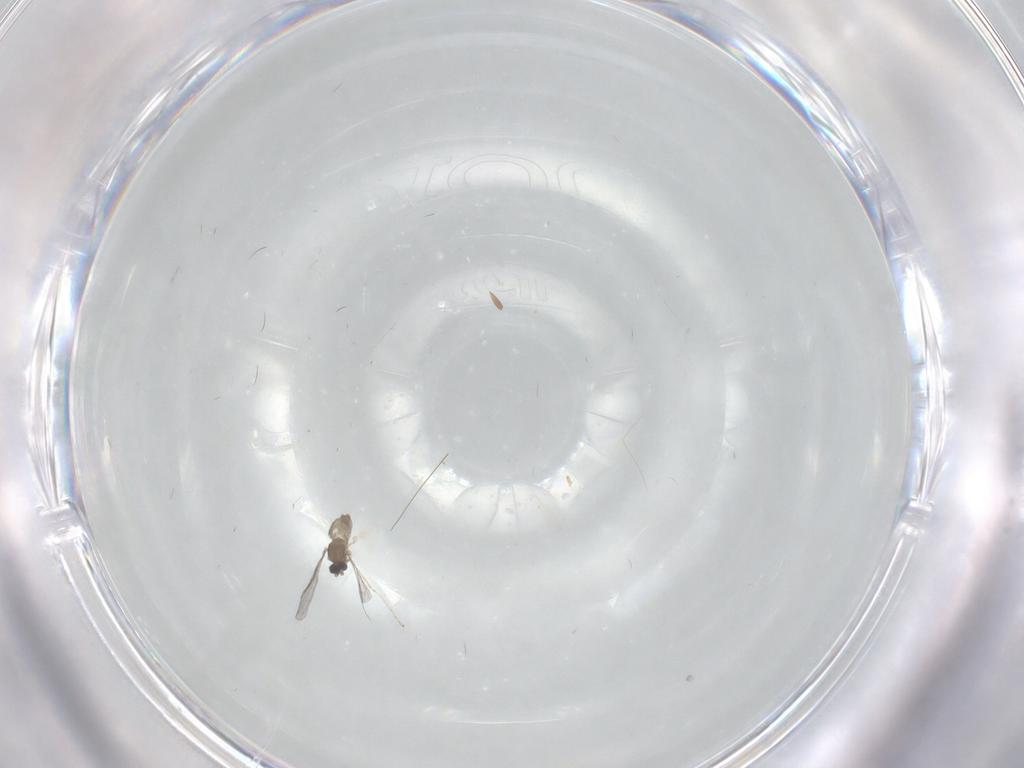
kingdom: Animalia
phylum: Arthropoda
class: Insecta
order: Diptera
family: Cecidomyiidae
